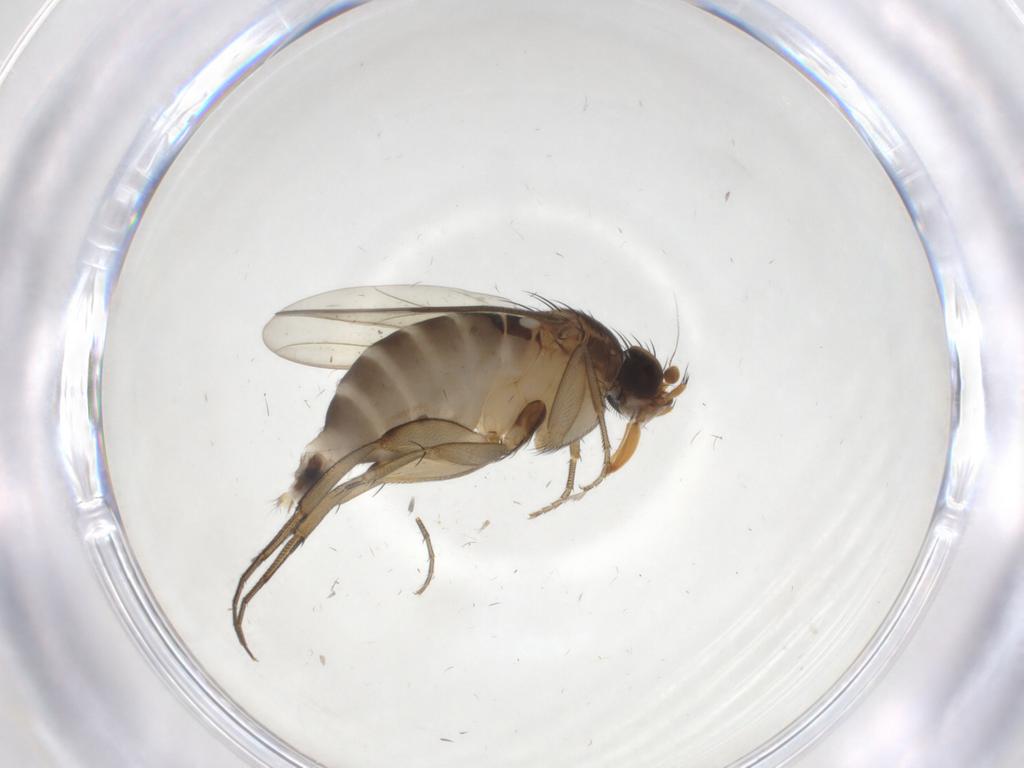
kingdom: Animalia
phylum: Arthropoda
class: Insecta
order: Diptera
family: Phoridae
